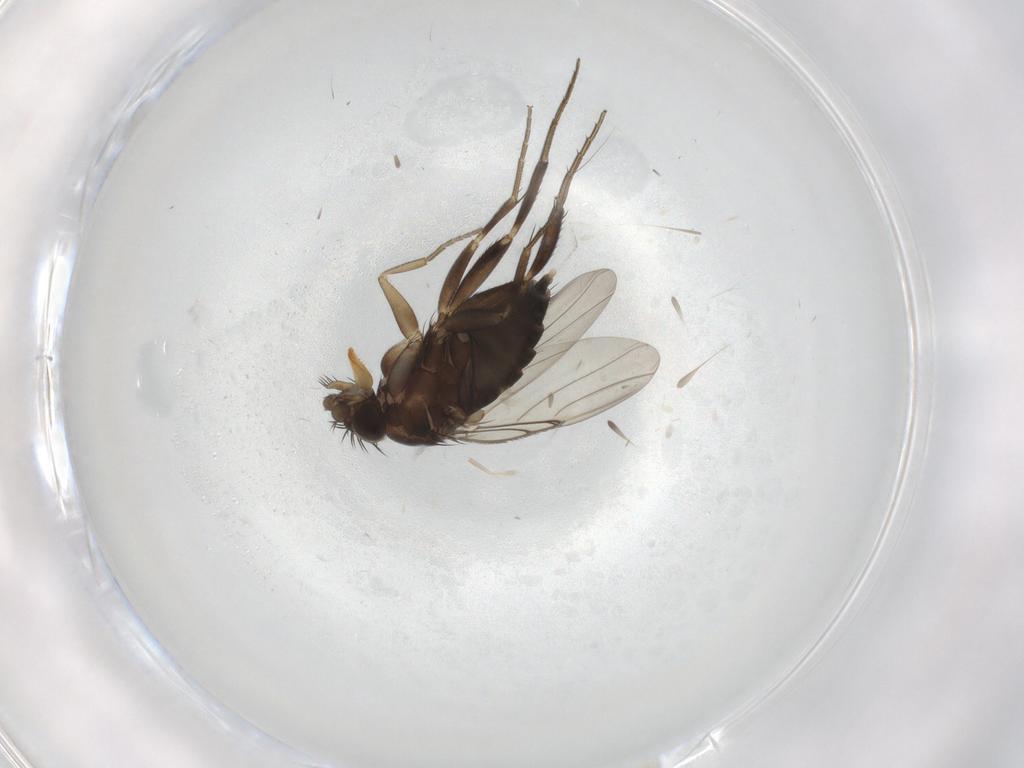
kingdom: Animalia
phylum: Arthropoda
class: Insecta
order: Diptera
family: Phoridae
